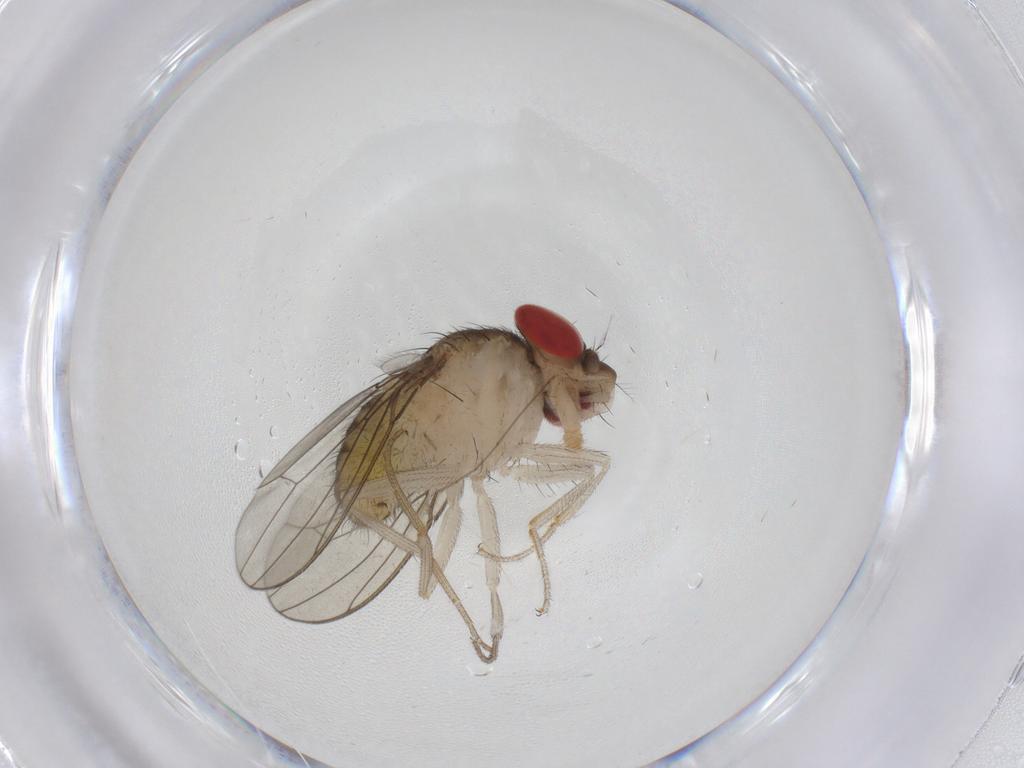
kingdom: Animalia
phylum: Arthropoda
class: Insecta
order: Diptera
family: Drosophilidae
